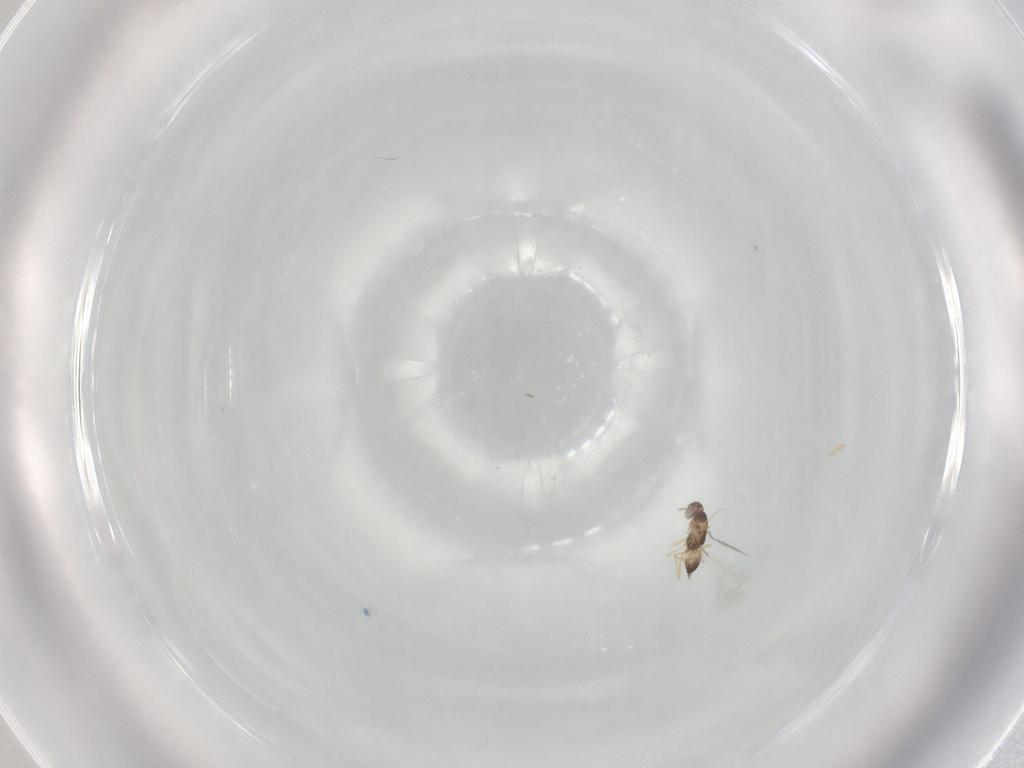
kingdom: Animalia
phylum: Arthropoda
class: Insecta
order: Hymenoptera
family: Mymaridae
